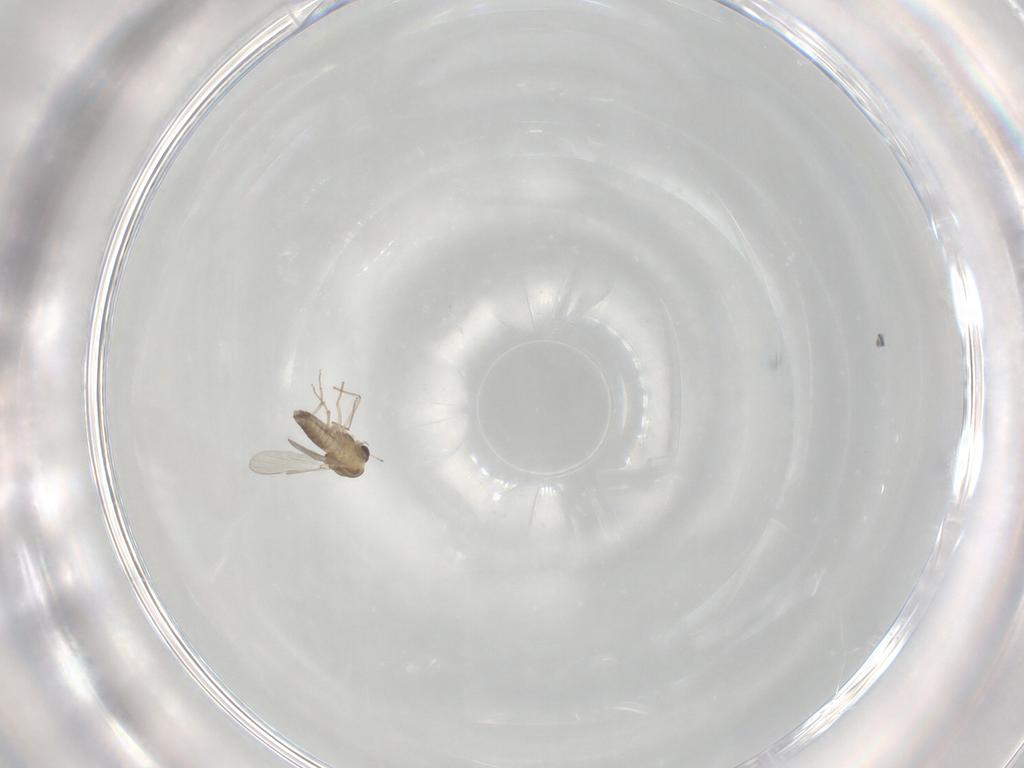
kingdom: Animalia
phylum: Arthropoda
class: Insecta
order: Diptera
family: Chironomidae
